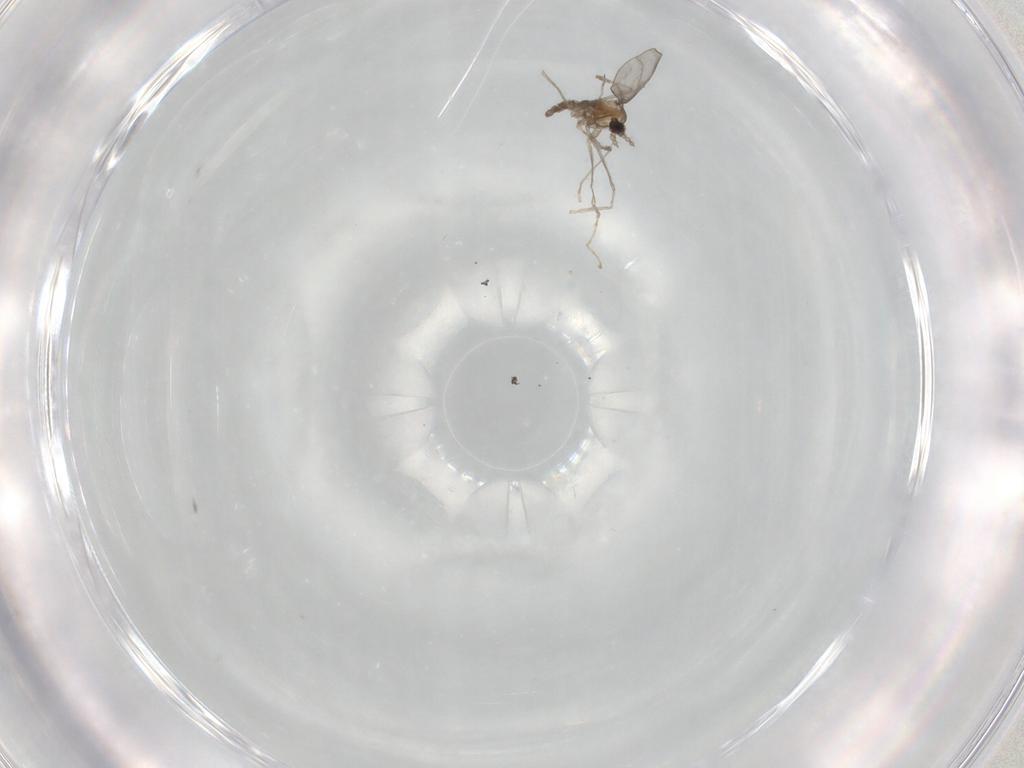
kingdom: Animalia
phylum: Arthropoda
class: Insecta
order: Diptera
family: Cecidomyiidae
